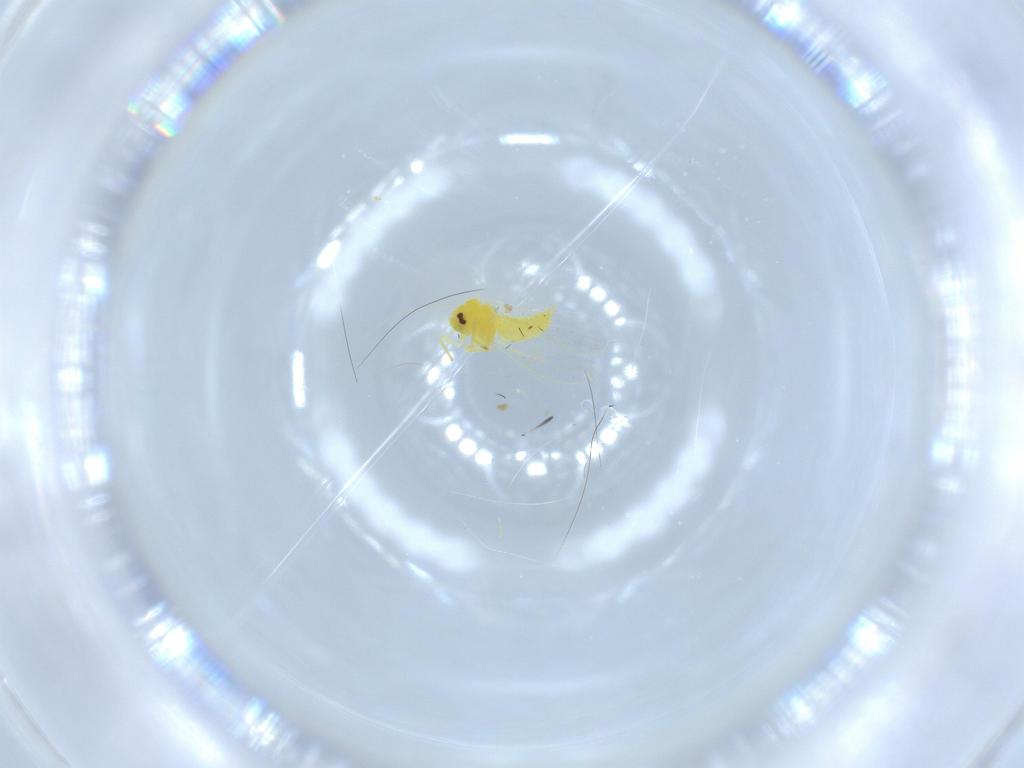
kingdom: Animalia
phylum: Arthropoda
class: Insecta
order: Hemiptera
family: Aleyrodidae
